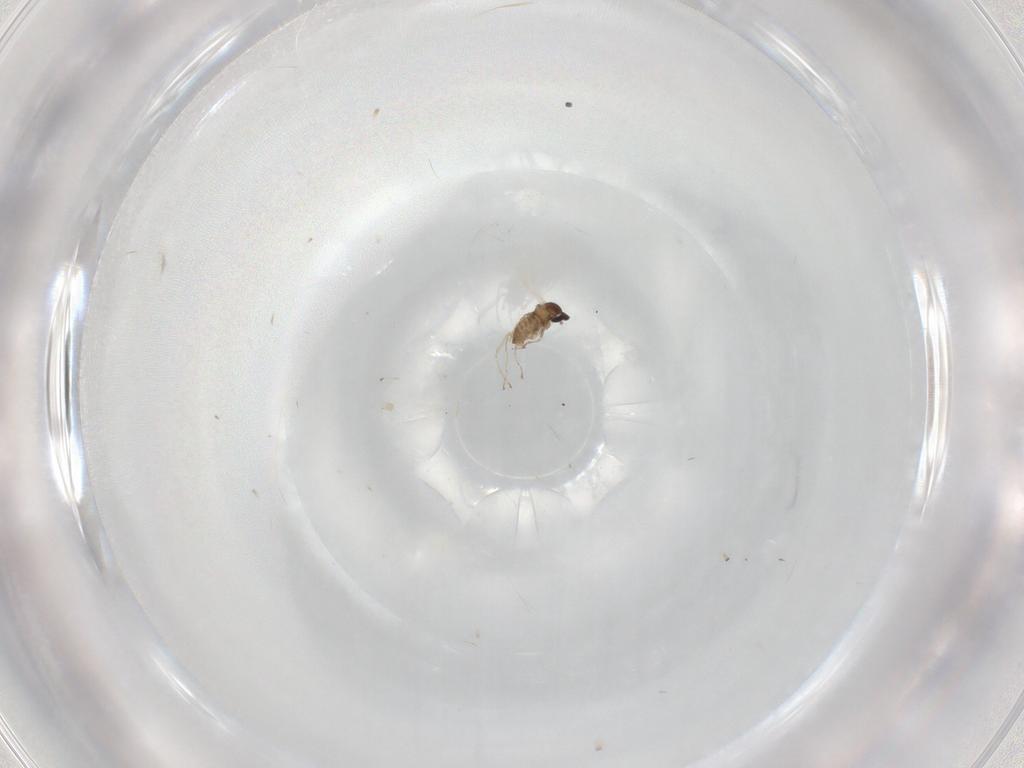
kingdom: Animalia
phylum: Arthropoda
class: Insecta
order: Diptera
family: Cecidomyiidae
